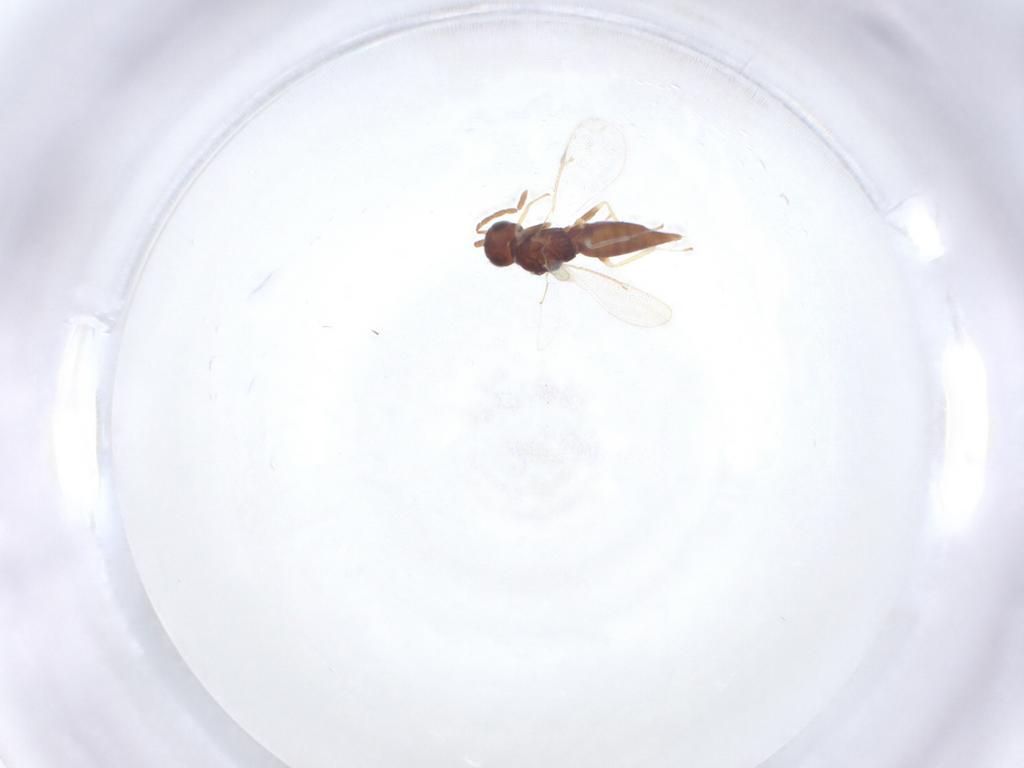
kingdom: Animalia
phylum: Arthropoda
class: Insecta
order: Hymenoptera
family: Eulophidae
